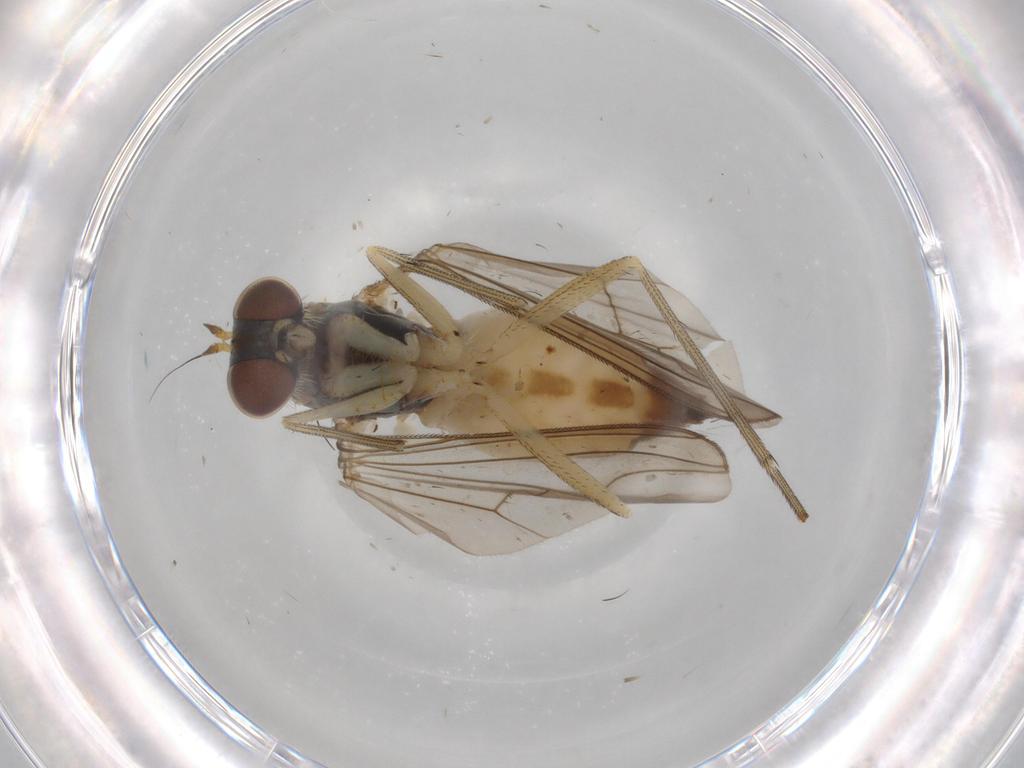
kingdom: Animalia
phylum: Arthropoda
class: Insecta
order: Diptera
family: Dolichopodidae
